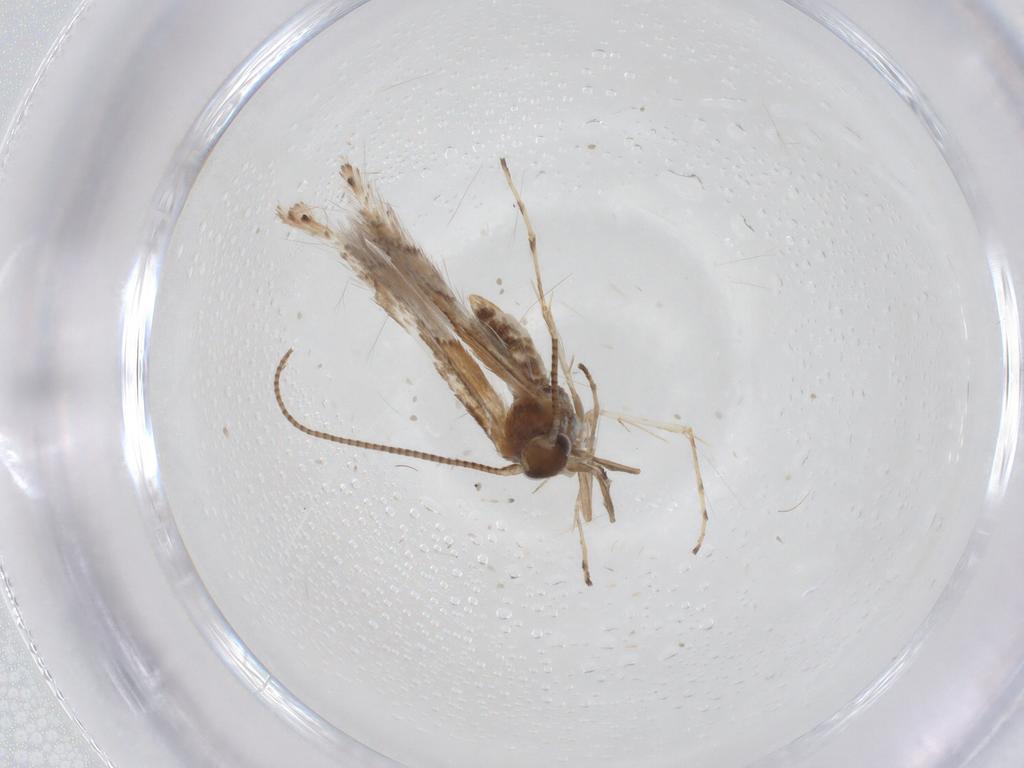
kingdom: Animalia
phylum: Arthropoda
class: Insecta
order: Lepidoptera
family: Gracillariidae
